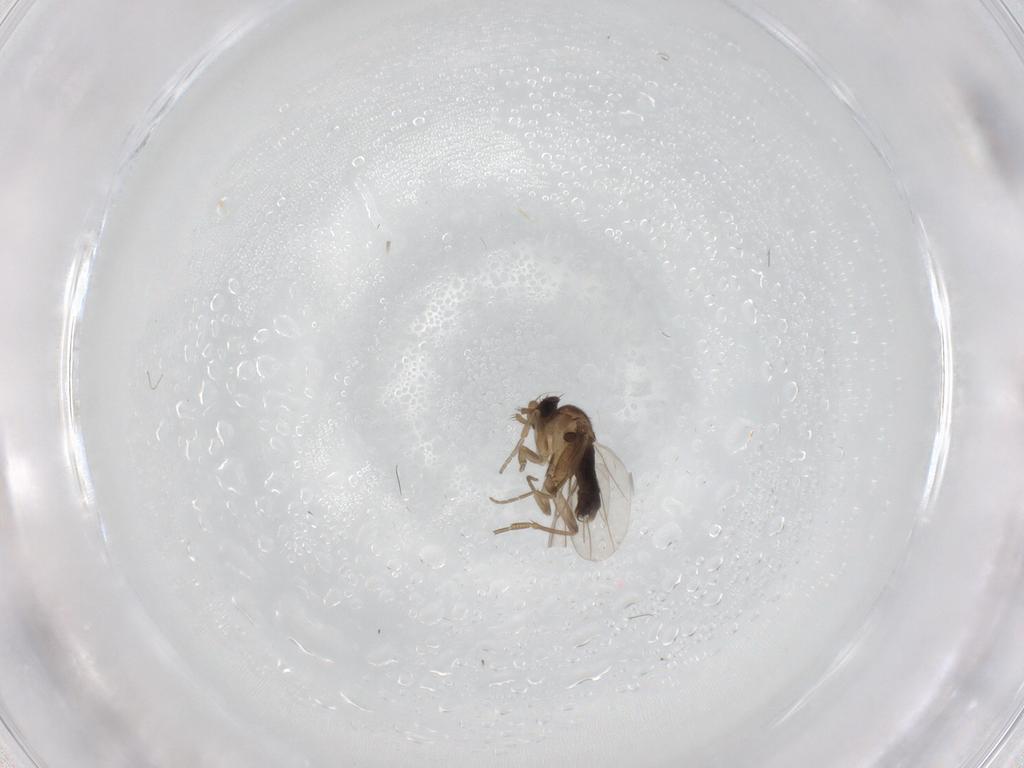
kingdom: Animalia
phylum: Arthropoda
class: Insecta
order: Diptera
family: Phoridae
